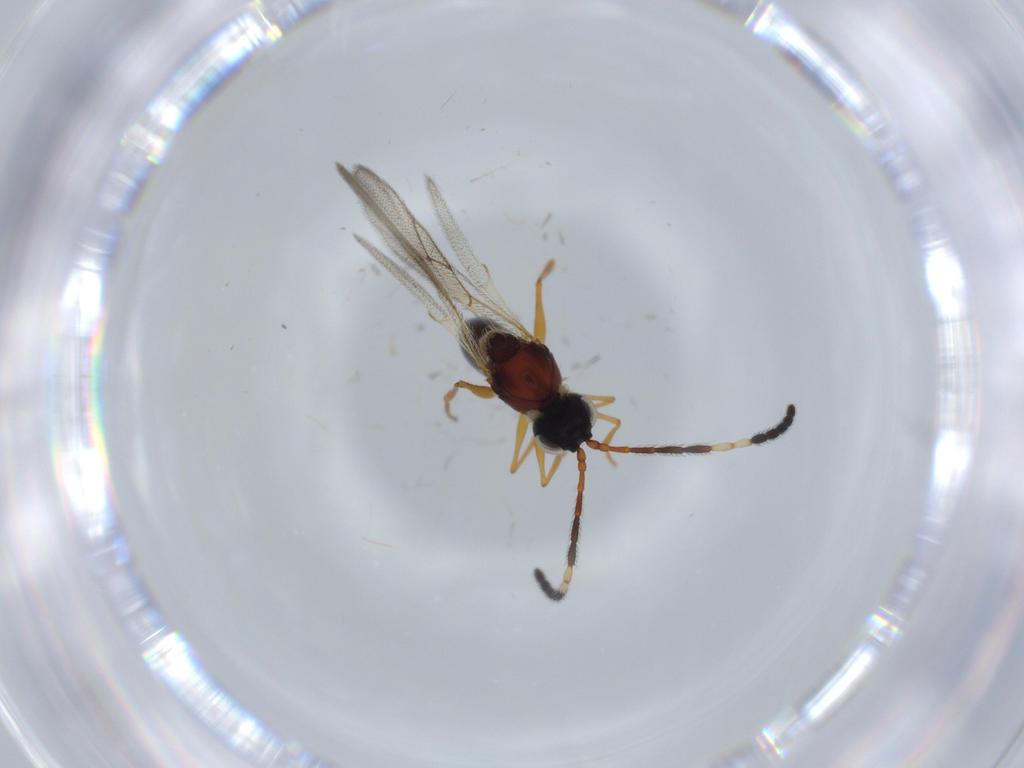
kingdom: Animalia
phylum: Arthropoda
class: Insecta
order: Hymenoptera
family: Figitidae
